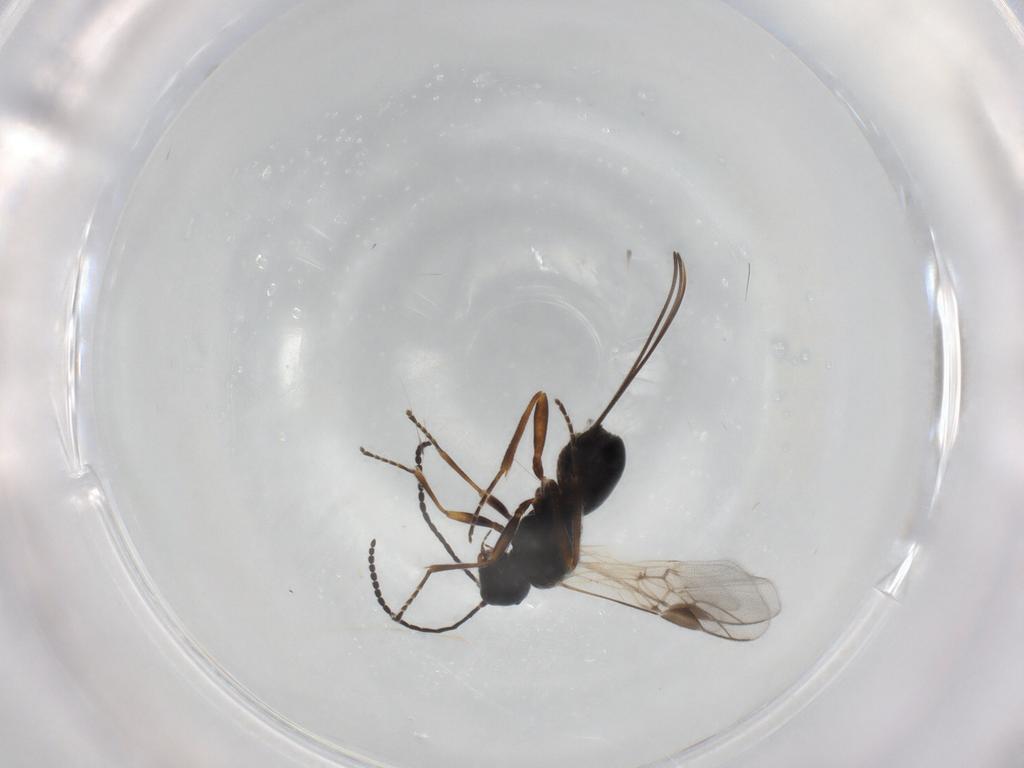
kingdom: Animalia
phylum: Arthropoda
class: Insecta
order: Hymenoptera
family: Braconidae
